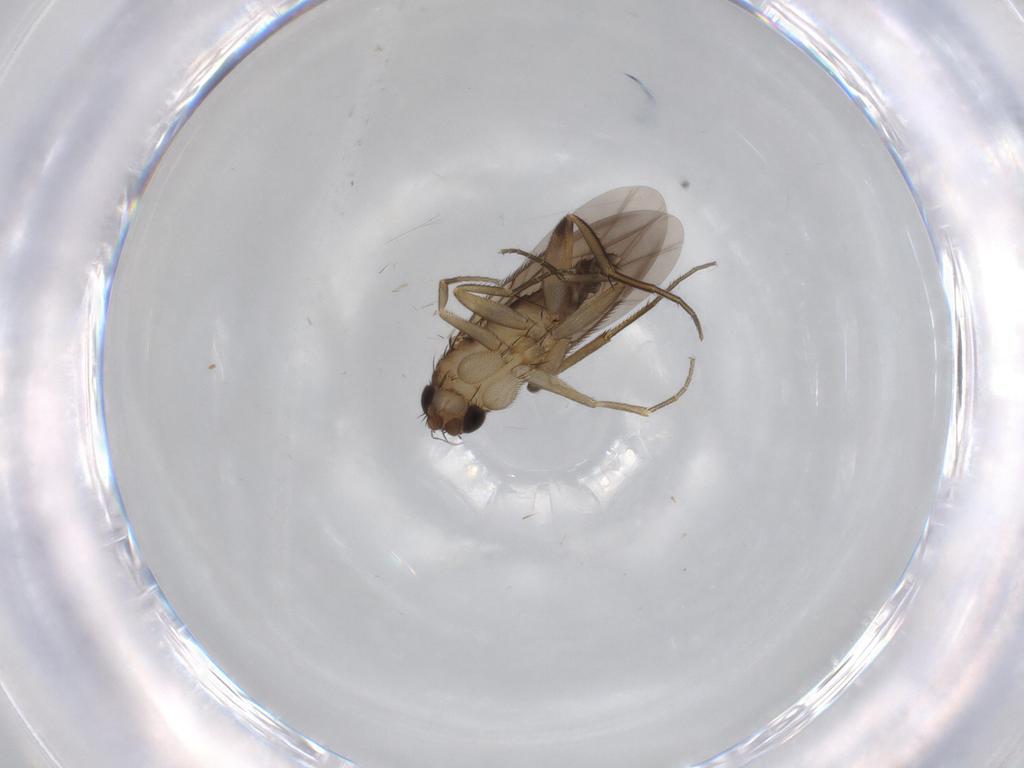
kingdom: Animalia
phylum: Arthropoda
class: Insecta
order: Diptera
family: Phoridae
